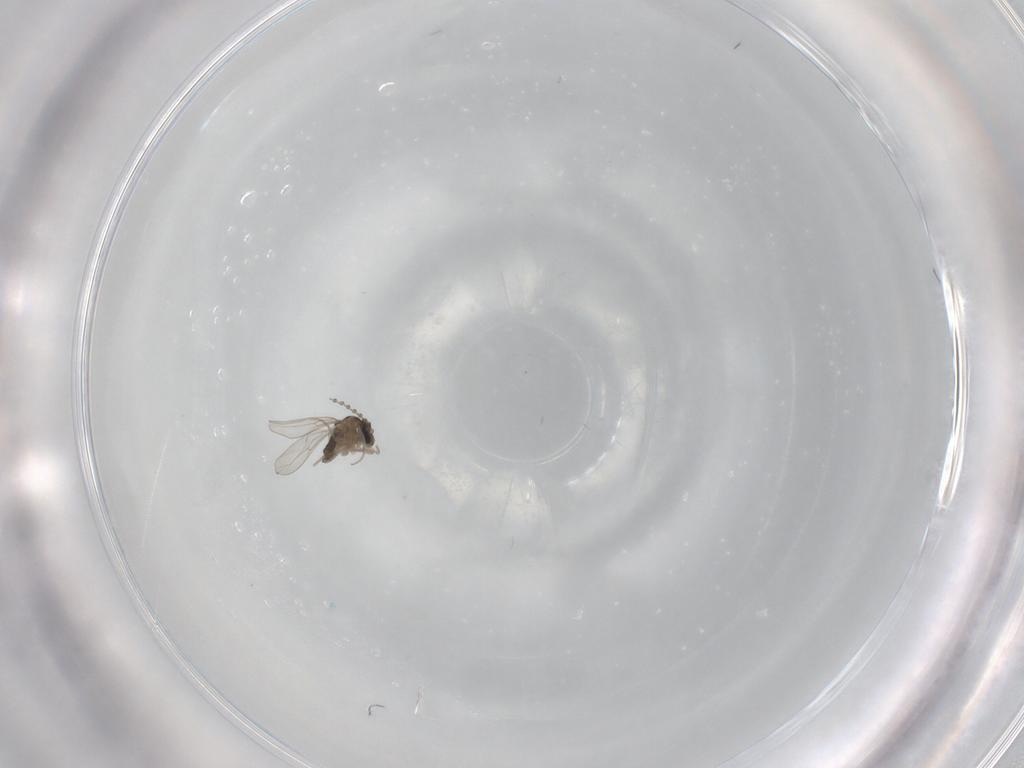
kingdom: Animalia
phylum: Arthropoda
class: Insecta
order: Diptera
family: Cecidomyiidae
